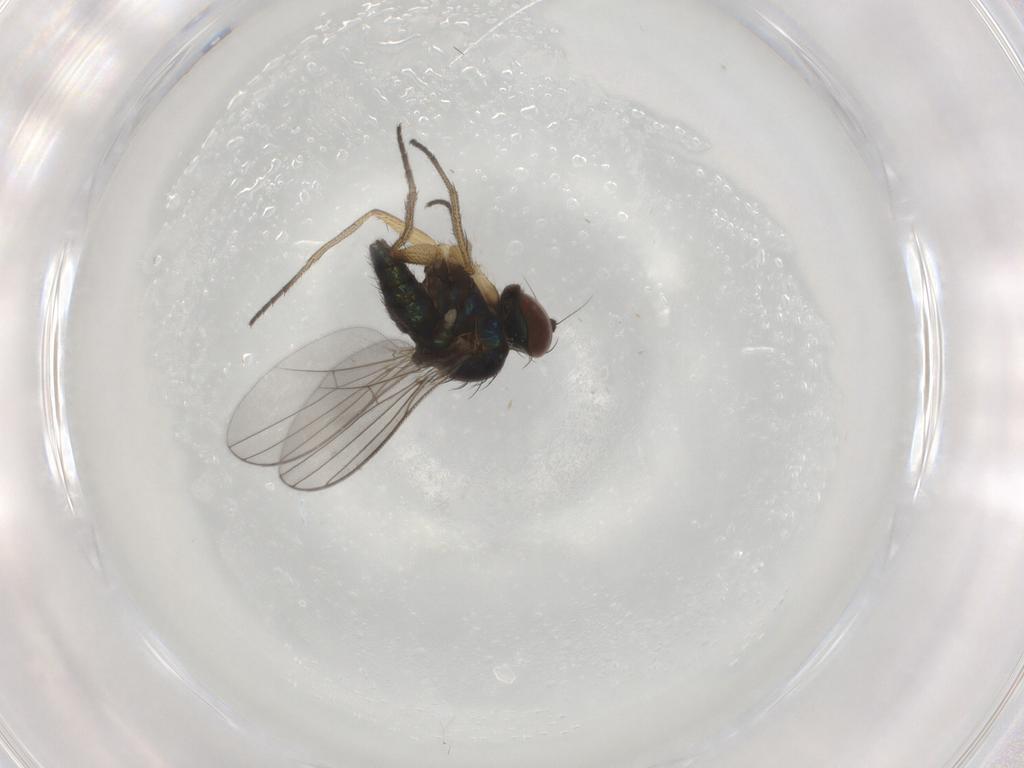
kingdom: Animalia
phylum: Arthropoda
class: Insecta
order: Diptera
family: Dolichopodidae
